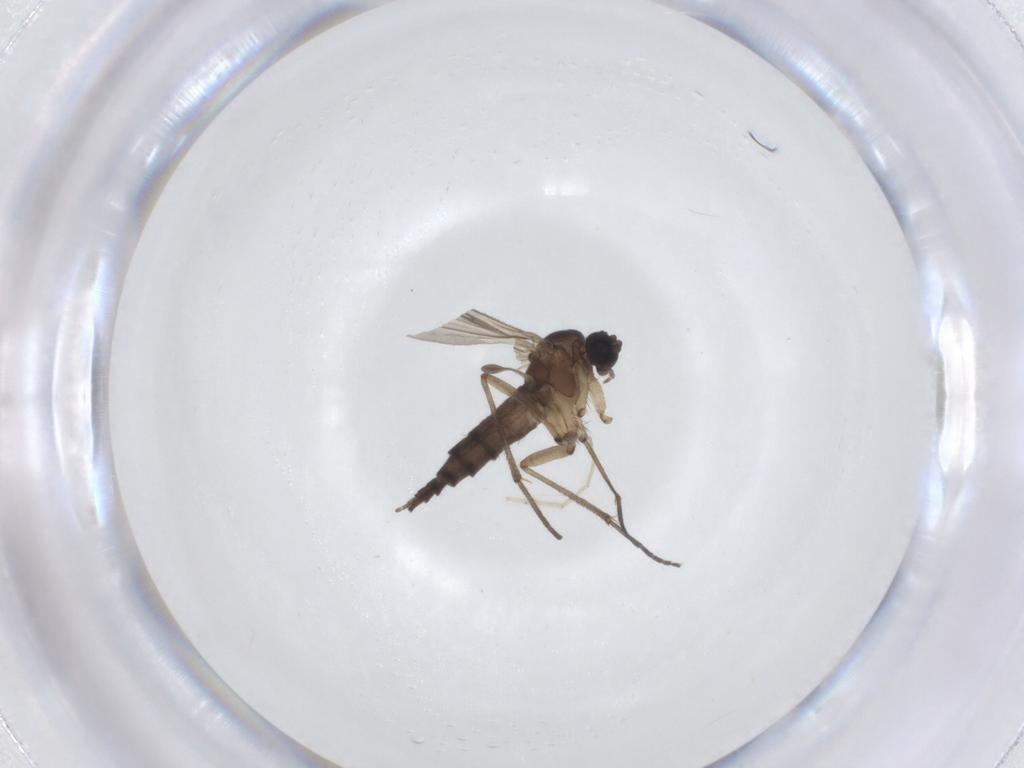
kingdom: Animalia
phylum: Arthropoda
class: Insecta
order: Diptera
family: Sciaridae
